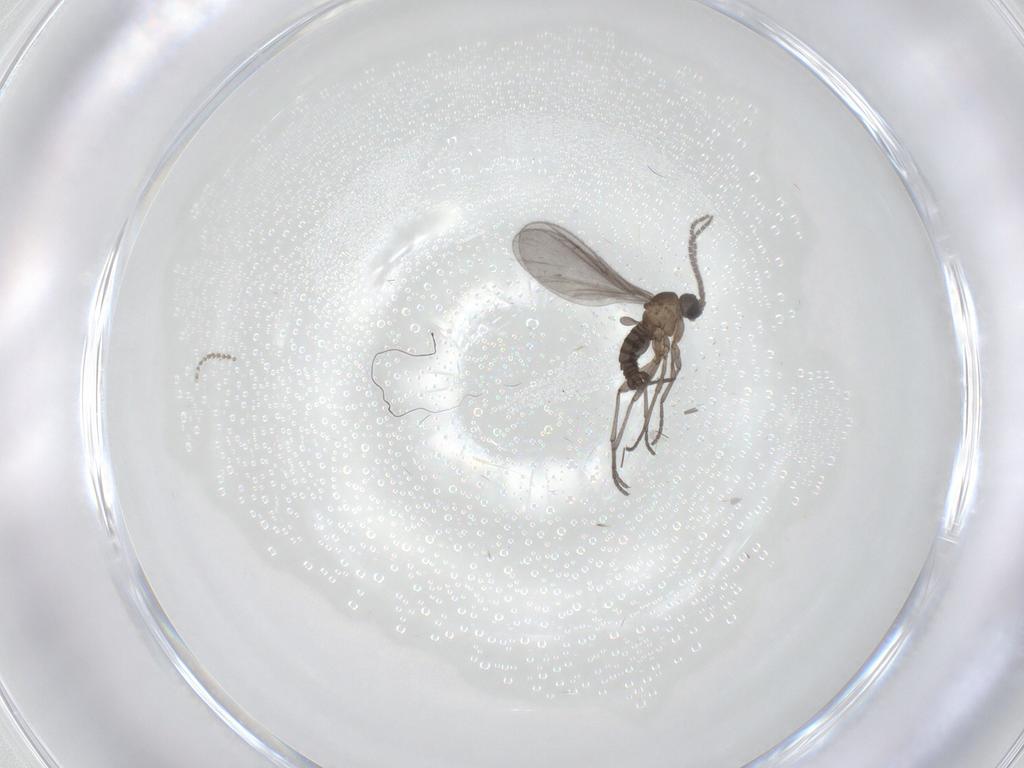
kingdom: Animalia
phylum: Arthropoda
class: Insecta
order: Diptera
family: Sciaridae
